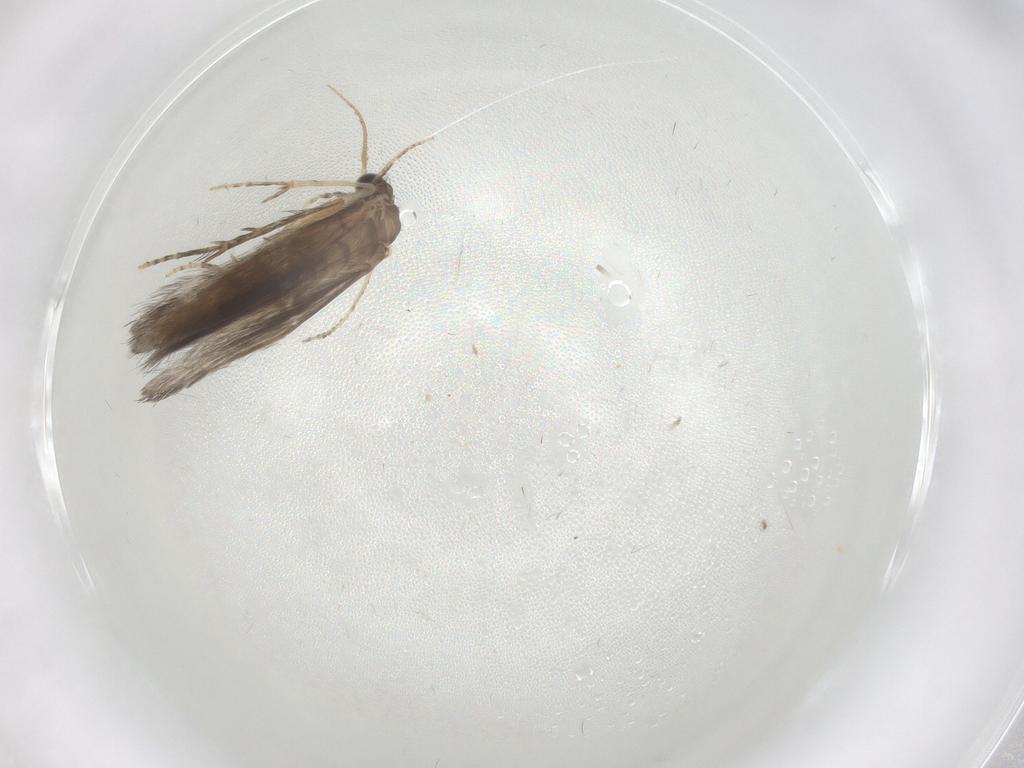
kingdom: Animalia
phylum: Arthropoda
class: Insecta
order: Trichoptera
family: Hydroptilidae
